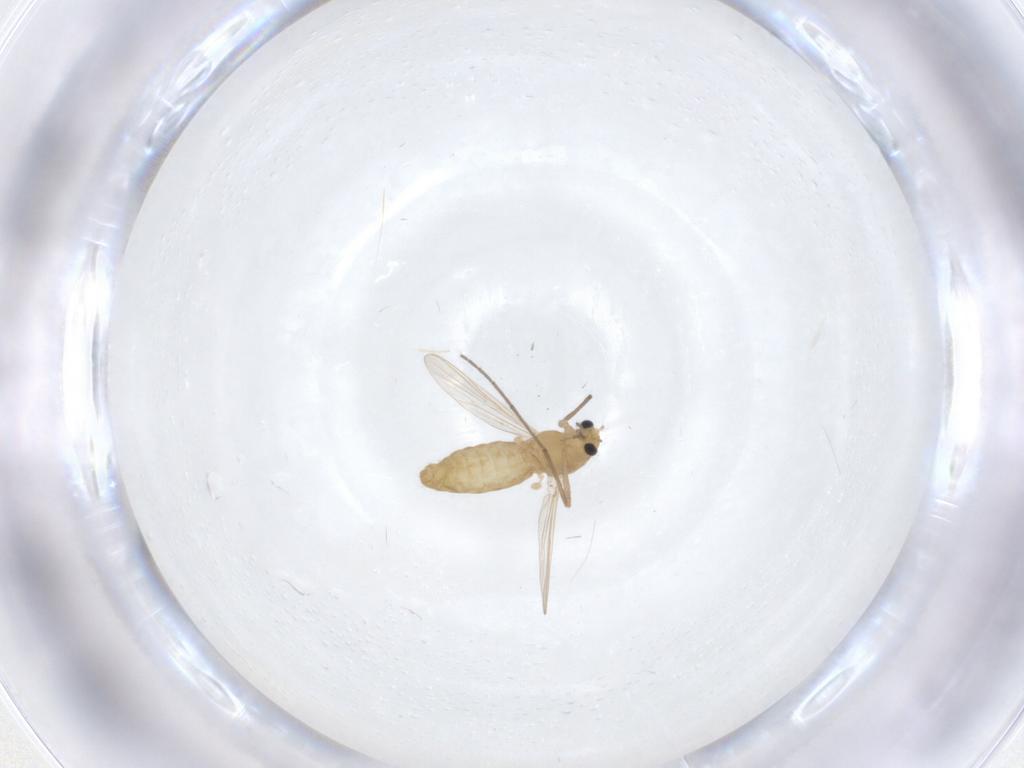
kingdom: Animalia
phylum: Arthropoda
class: Insecta
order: Diptera
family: Chironomidae
